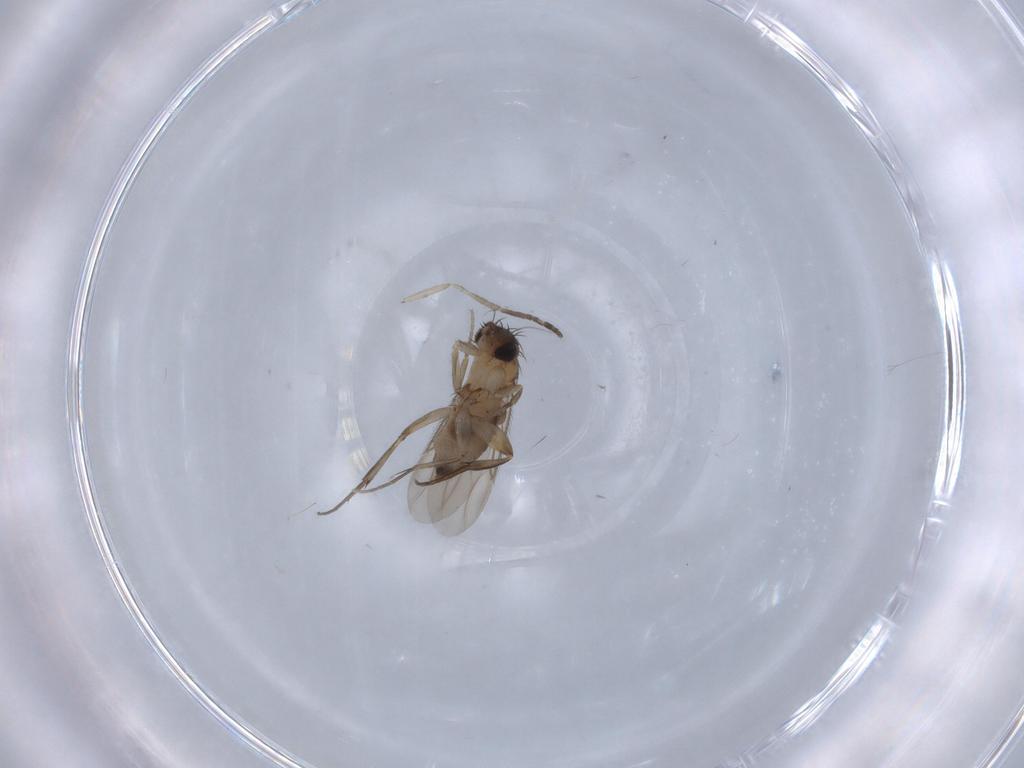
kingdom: Animalia
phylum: Arthropoda
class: Insecta
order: Diptera
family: Phoridae
